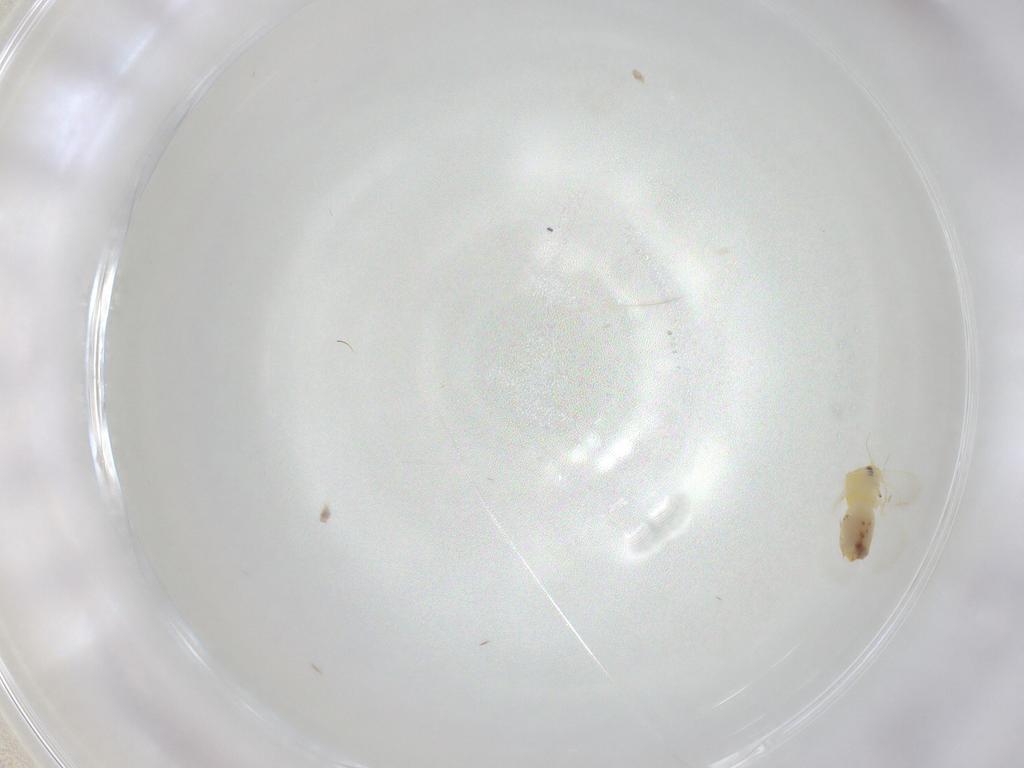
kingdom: Animalia
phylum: Arthropoda
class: Insecta
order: Hemiptera
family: Aleyrodidae
